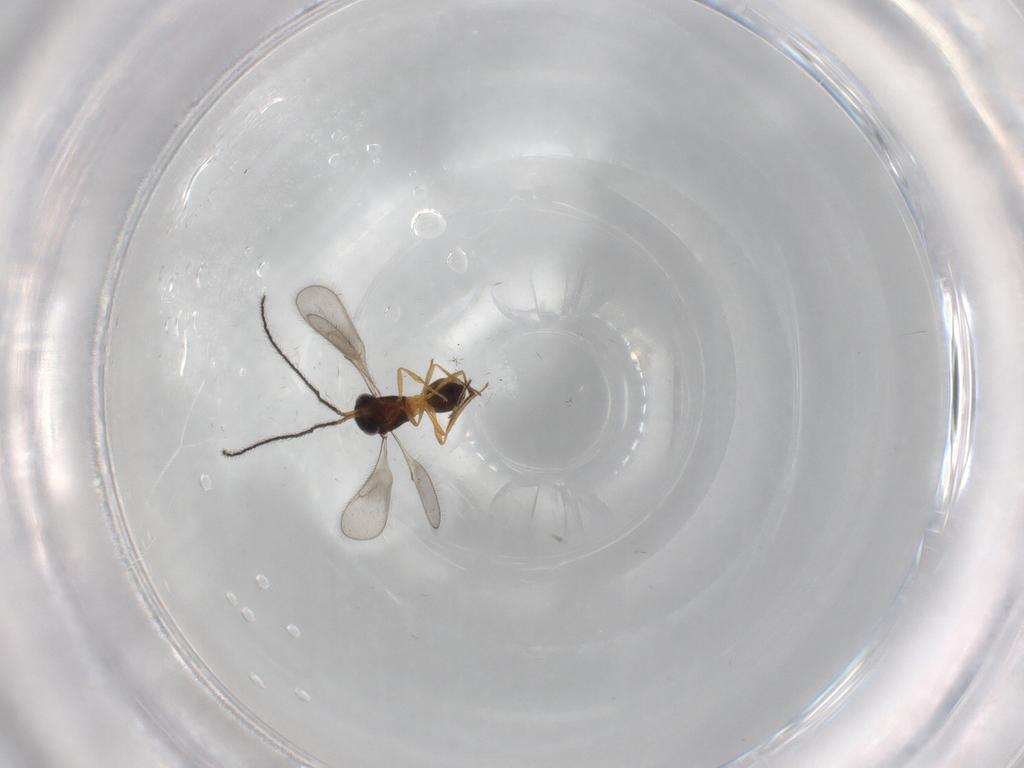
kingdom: Animalia
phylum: Arthropoda
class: Insecta
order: Hymenoptera
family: Scelionidae
